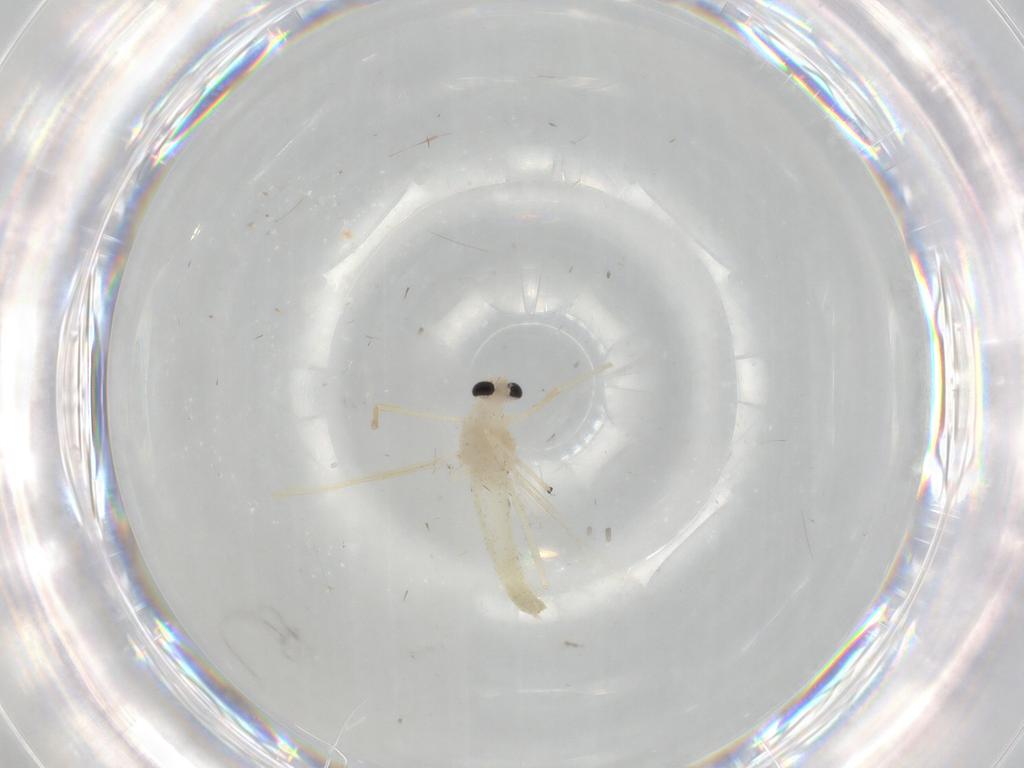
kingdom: Animalia
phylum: Arthropoda
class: Insecta
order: Diptera
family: Chironomidae
